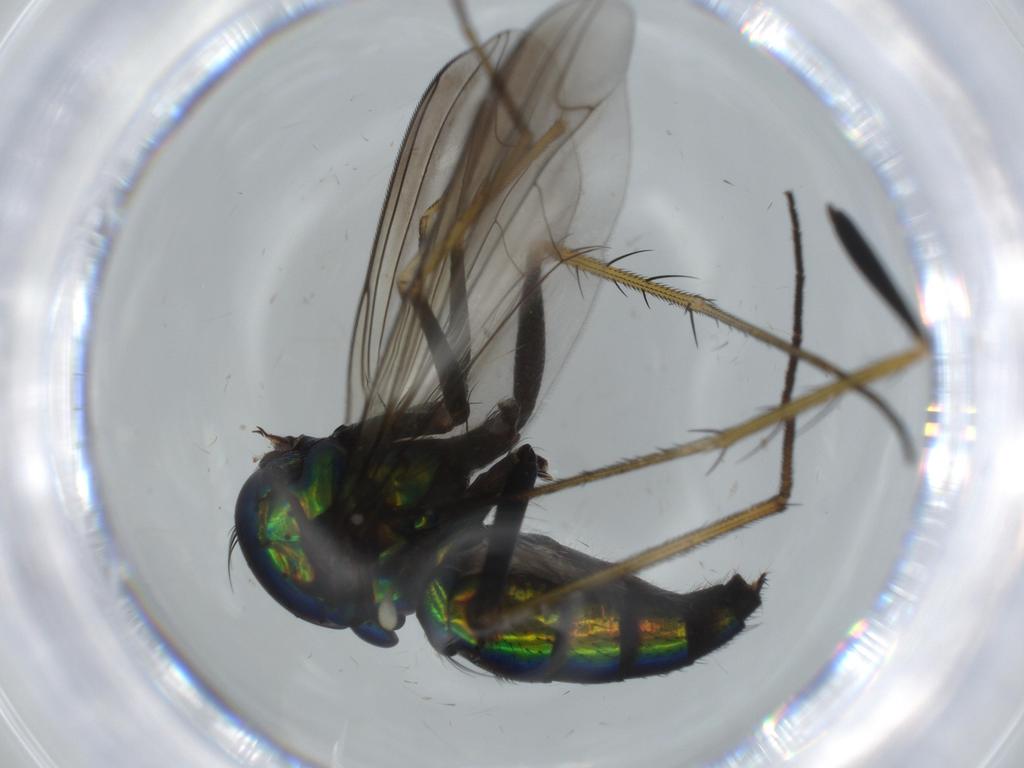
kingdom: Animalia
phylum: Arthropoda
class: Insecta
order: Diptera
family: Dolichopodidae
